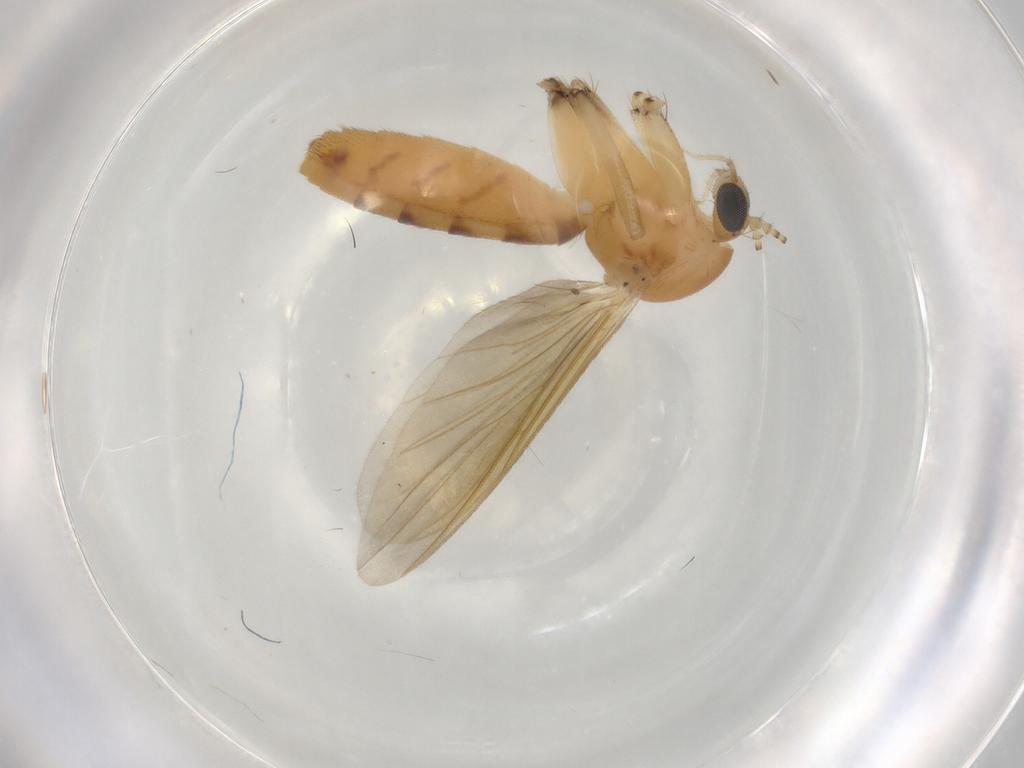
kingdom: Animalia
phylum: Arthropoda
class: Insecta
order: Diptera
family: Mycetophilidae
